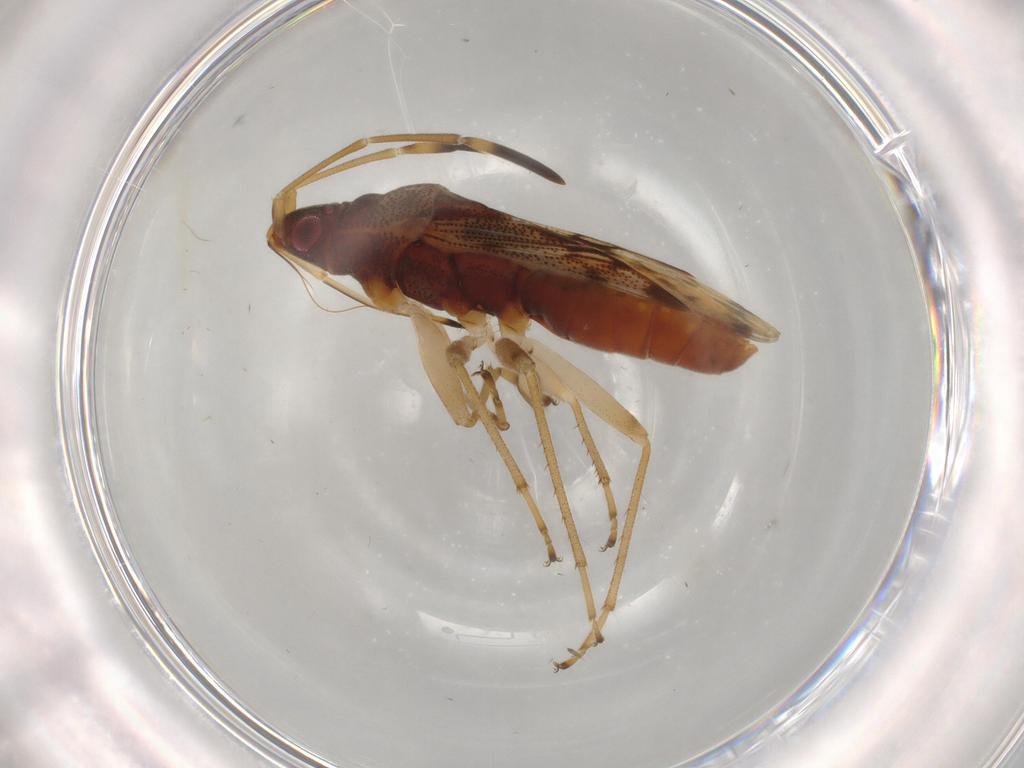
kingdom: Animalia
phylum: Arthropoda
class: Insecta
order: Hemiptera
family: Rhyparochromidae
